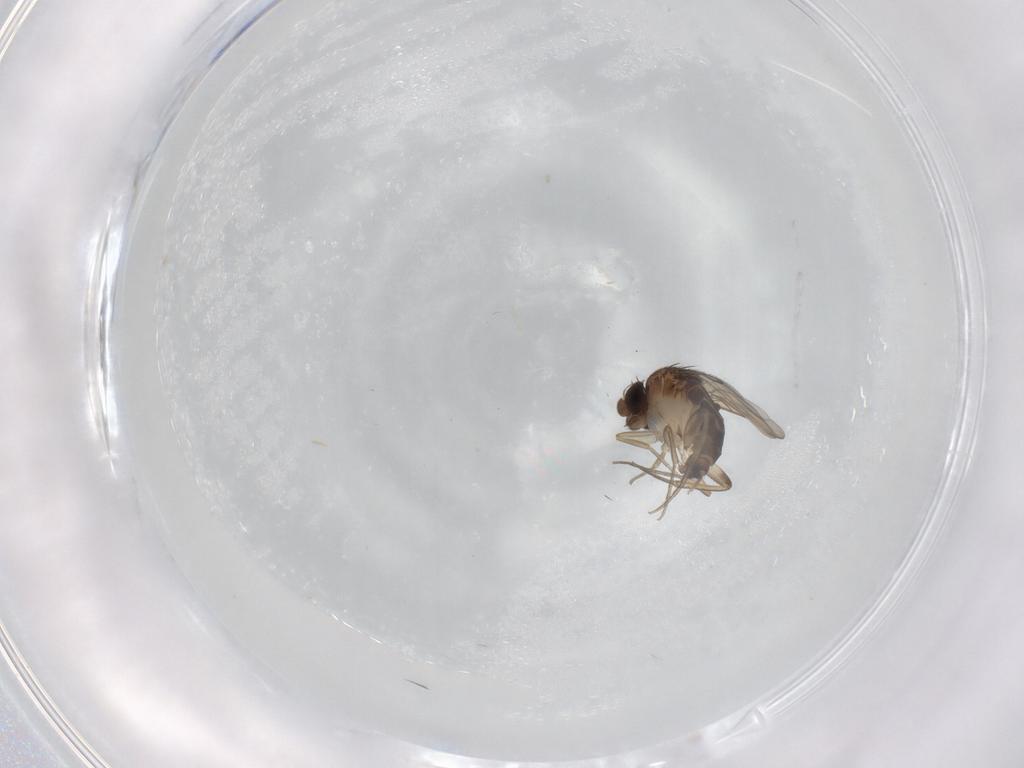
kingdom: Animalia
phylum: Arthropoda
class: Insecta
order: Diptera
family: Phoridae
